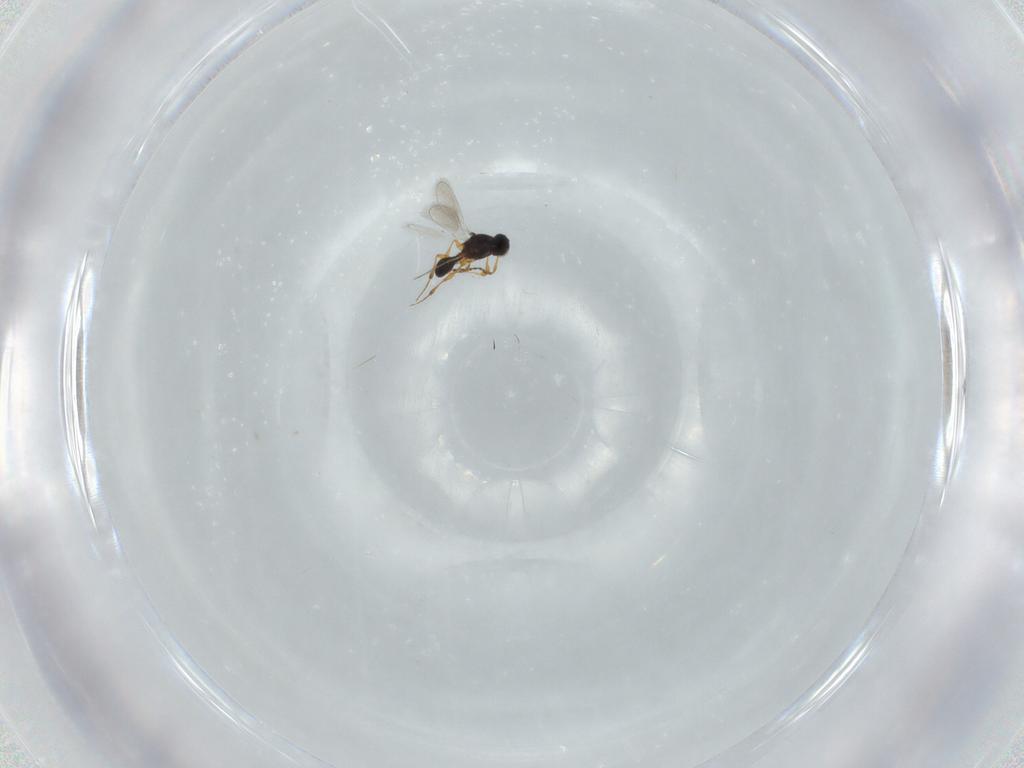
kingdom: Animalia
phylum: Arthropoda
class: Insecta
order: Hymenoptera
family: Platygastridae
